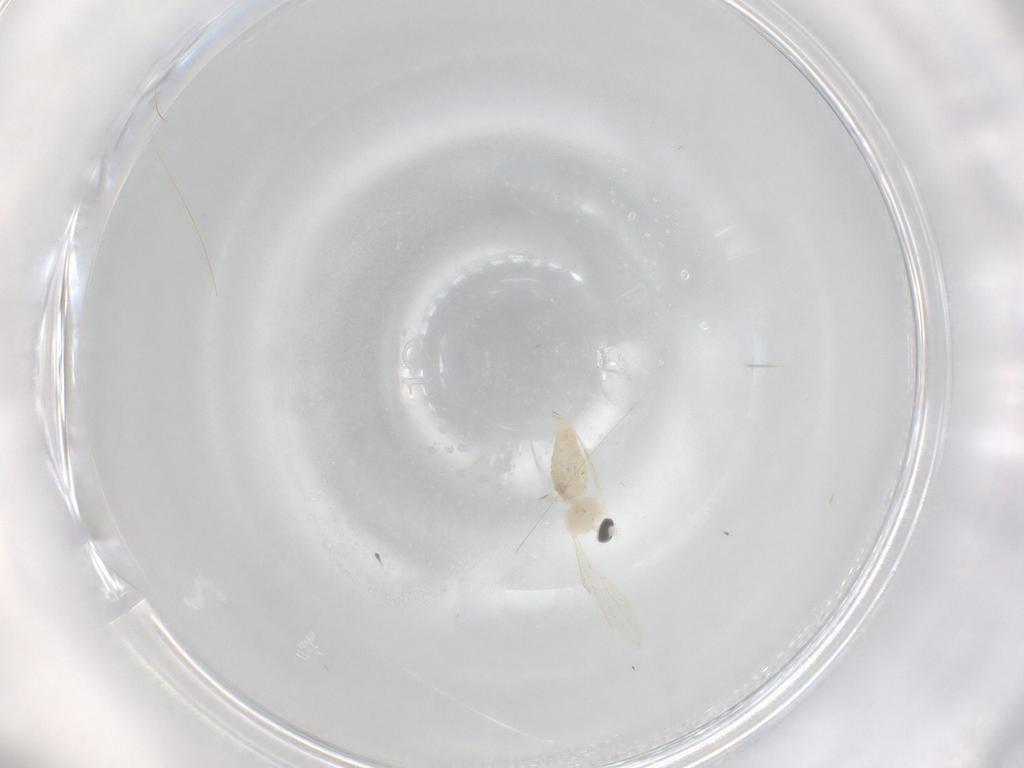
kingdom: Animalia
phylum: Arthropoda
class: Insecta
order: Diptera
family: Cecidomyiidae
